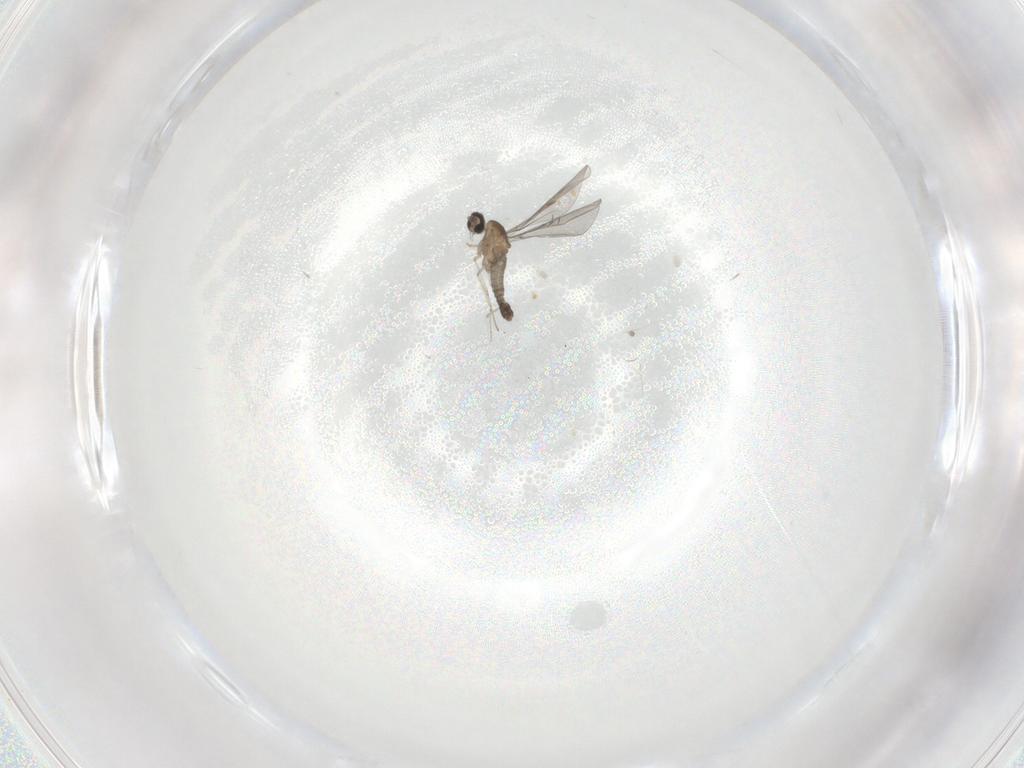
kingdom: Animalia
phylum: Arthropoda
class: Insecta
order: Diptera
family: Cecidomyiidae
